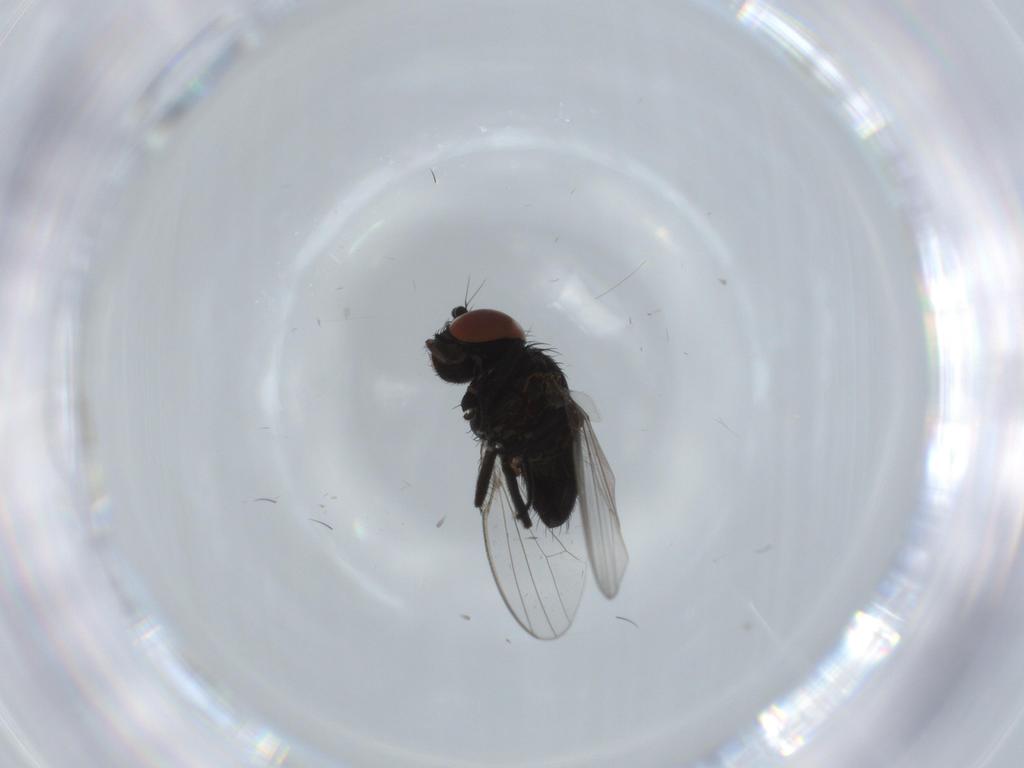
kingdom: Animalia
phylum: Arthropoda
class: Insecta
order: Diptera
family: Milichiidae
